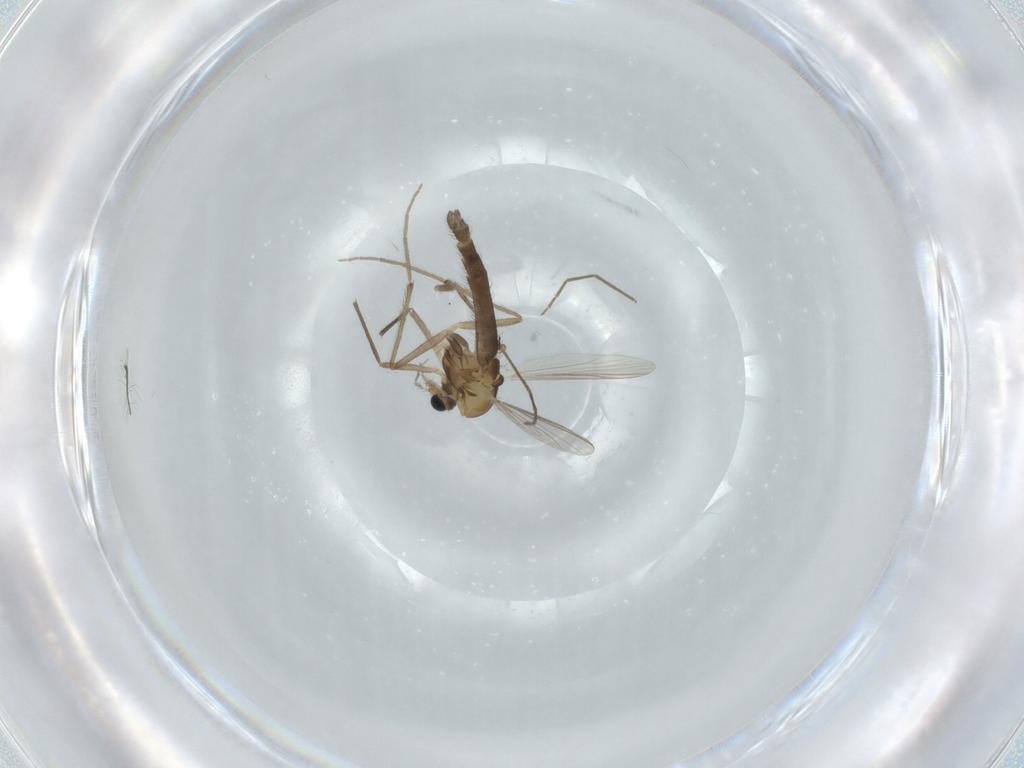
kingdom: Animalia
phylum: Arthropoda
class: Insecta
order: Diptera
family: Chironomidae
